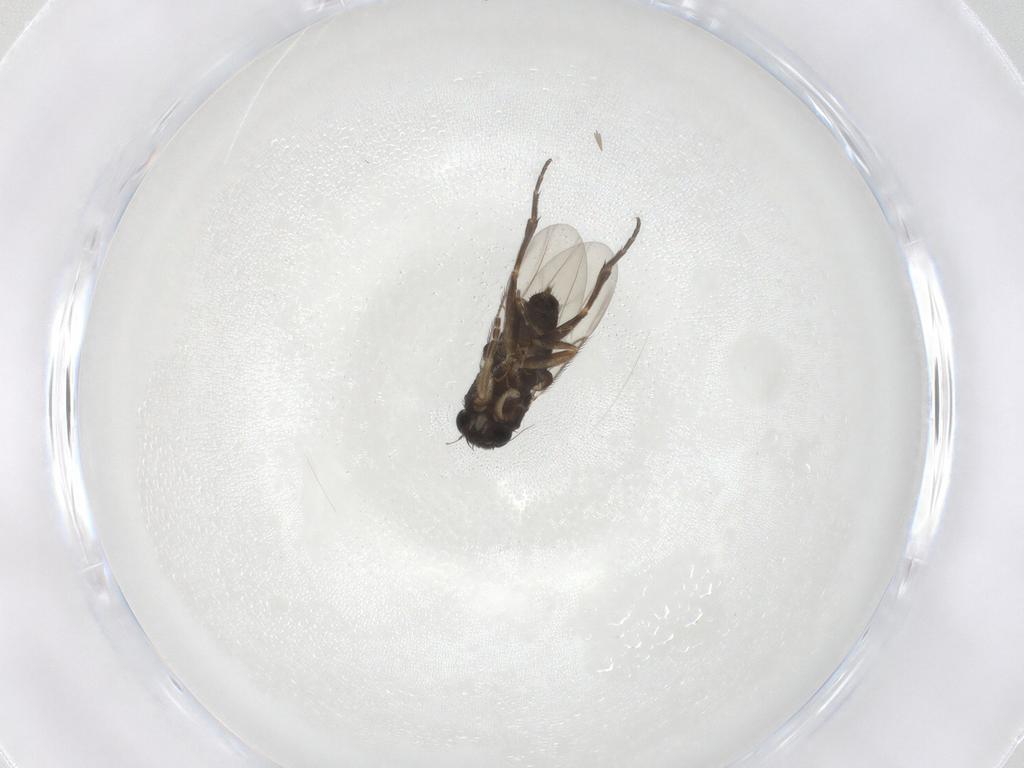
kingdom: Animalia
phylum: Arthropoda
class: Insecta
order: Diptera
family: Phoridae
